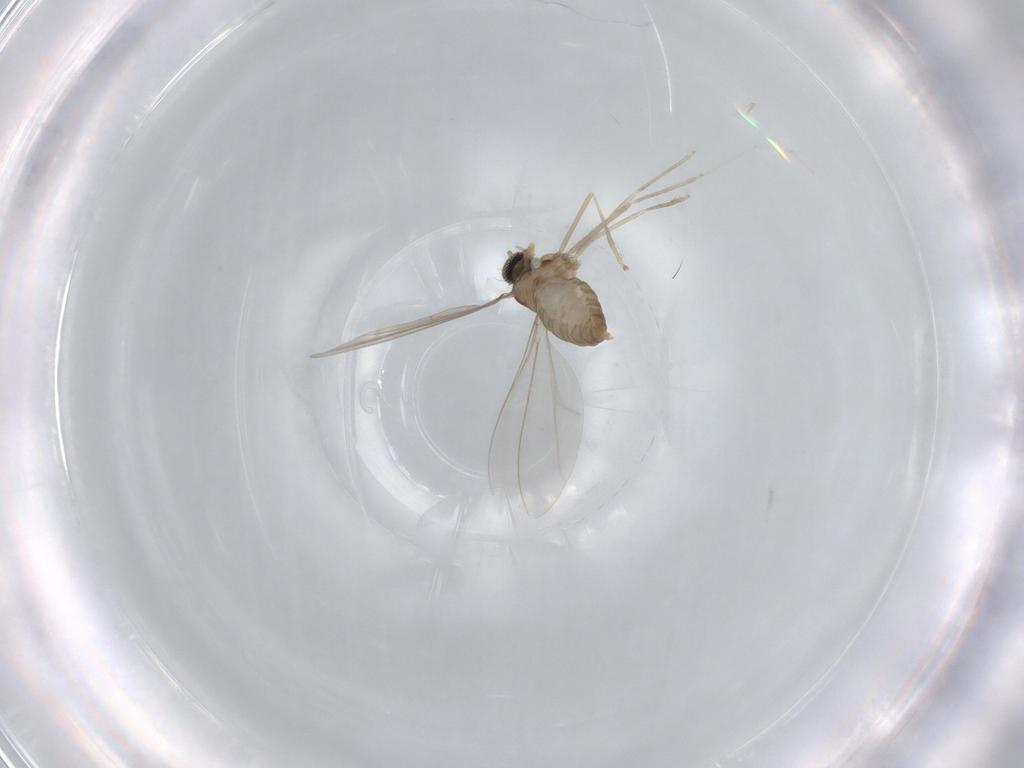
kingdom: Animalia
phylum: Arthropoda
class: Insecta
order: Diptera
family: Cecidomyiidae
